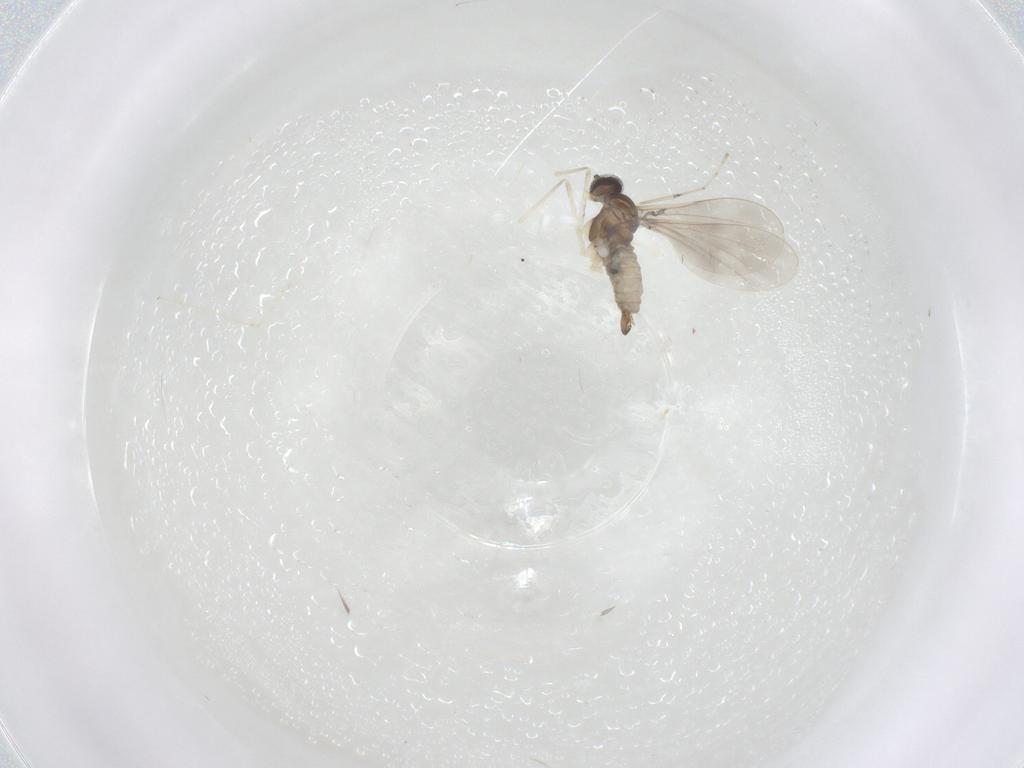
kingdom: Animalia
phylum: Arthropoda
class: Insecta
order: Diptera
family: Cecidomyiidae
